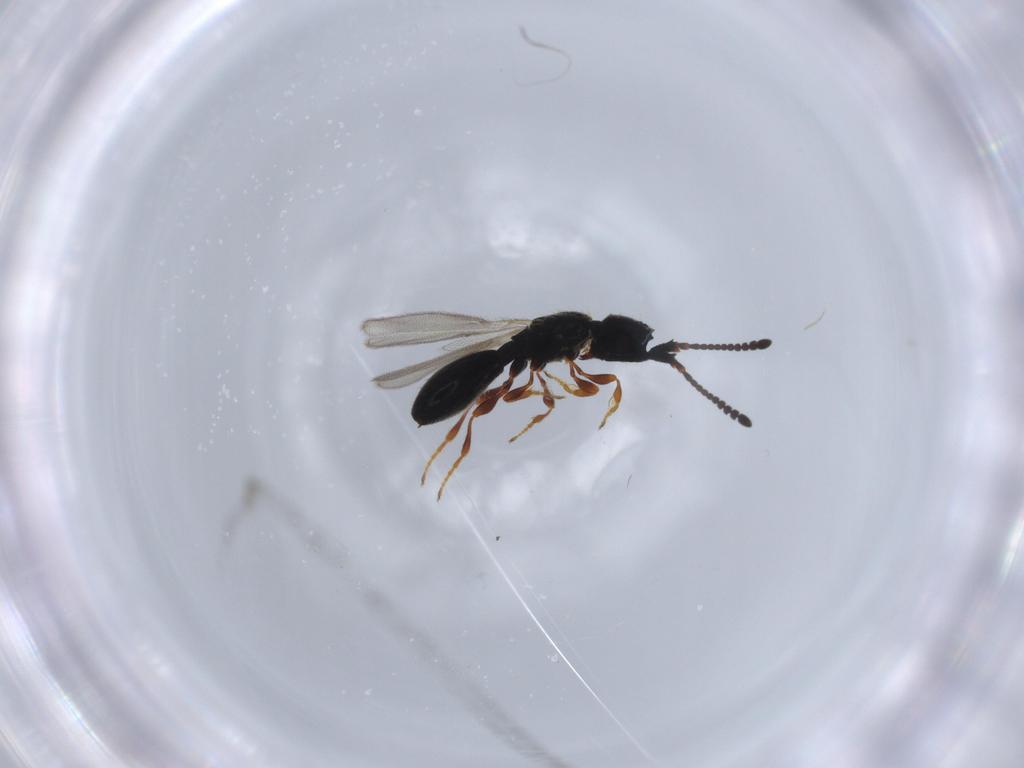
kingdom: Animalia
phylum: Arthropoda
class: Insecta
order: Hymenoptera
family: Diapriidae
